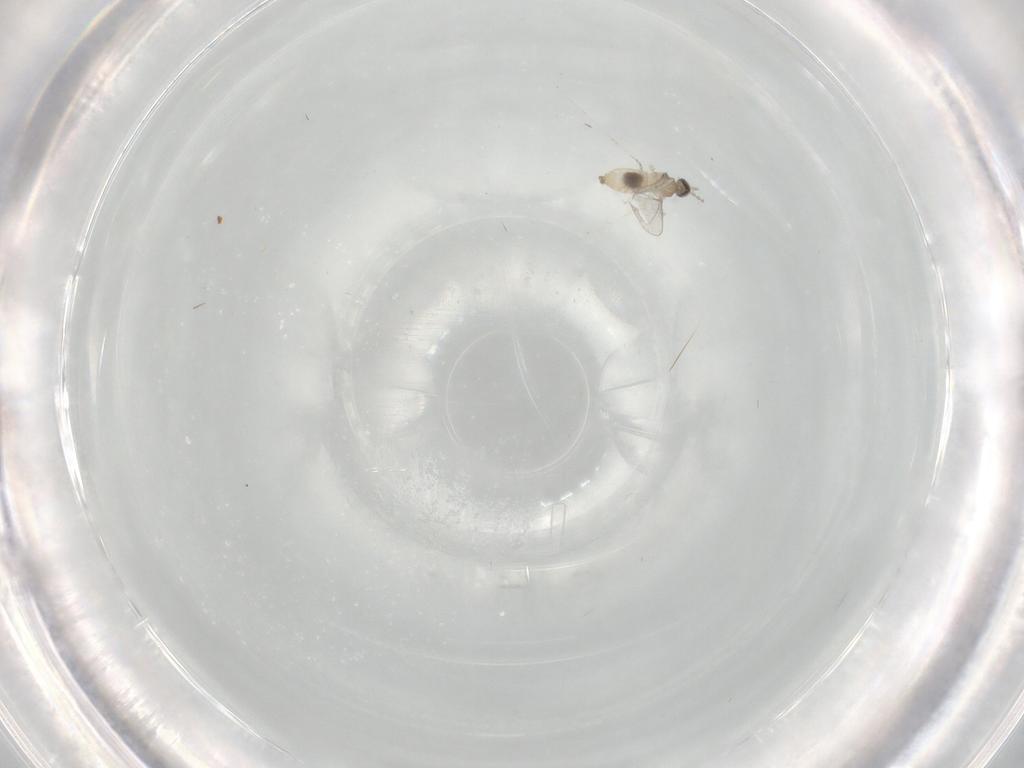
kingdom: Animalia
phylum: Arthropoda
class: Insecta
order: Diptera
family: Cecidomyiidae
